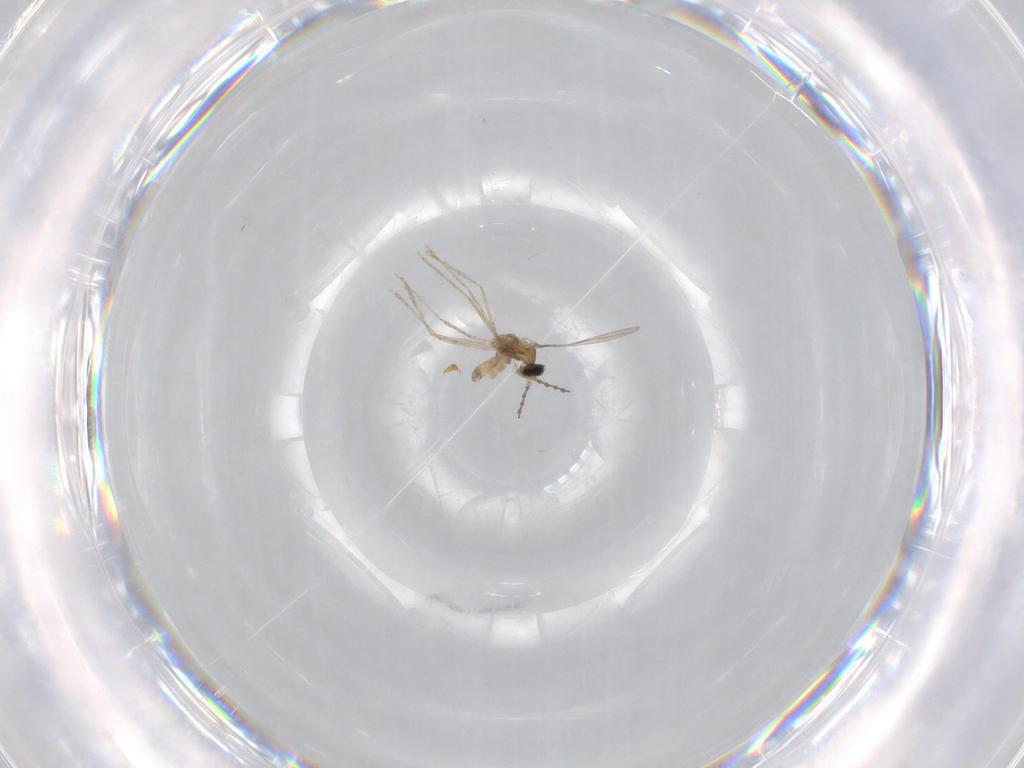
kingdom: Animalia
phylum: Arthropoda
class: Insecta
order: Diptera
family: Cecidomyiidae
